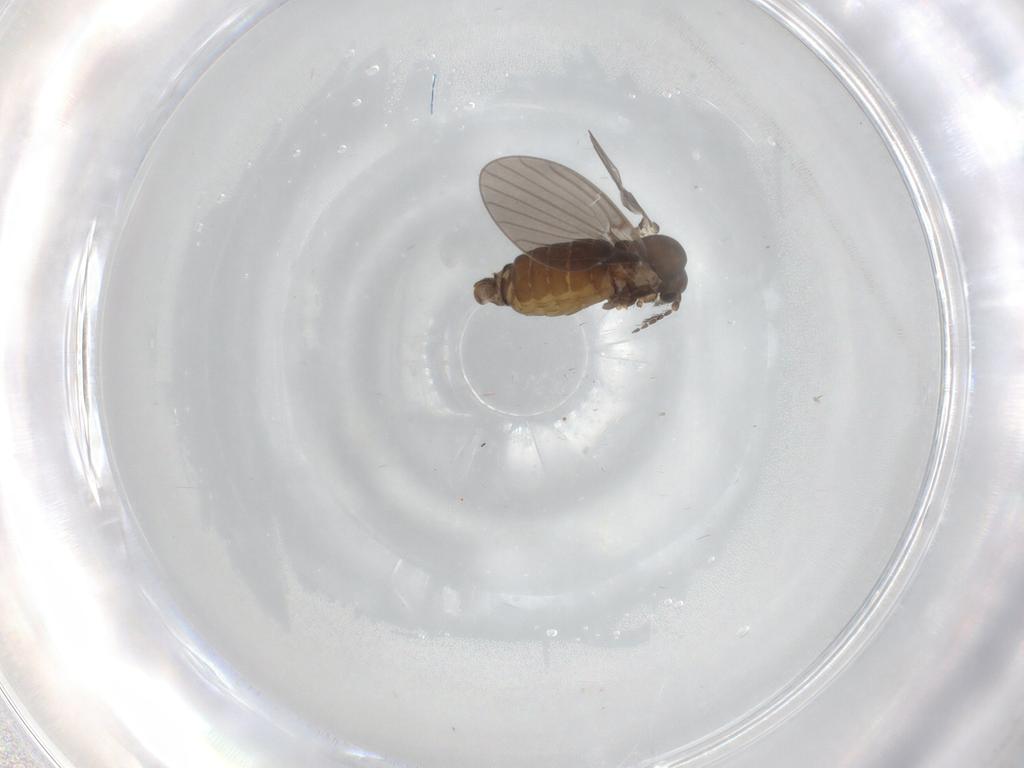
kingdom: Animalia
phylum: Arthropoda
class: Insecta
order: Diptera
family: Psychodidae
